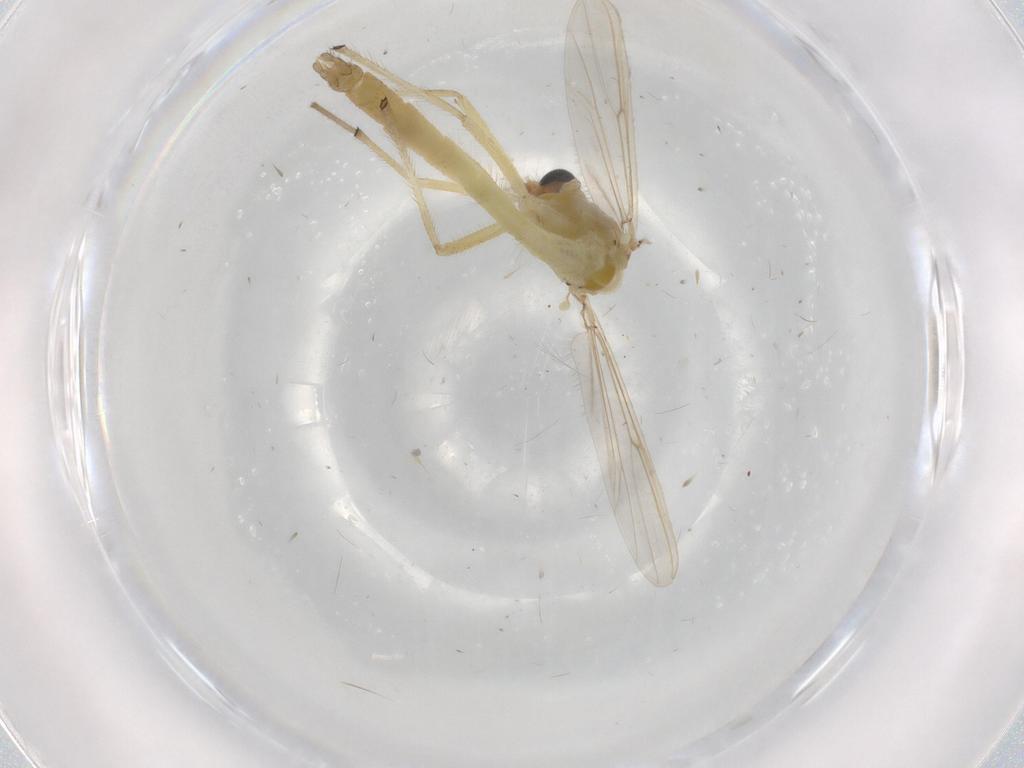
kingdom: Animalia
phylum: Arthropoda
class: Insecta
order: Diptera
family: Chironomidae
